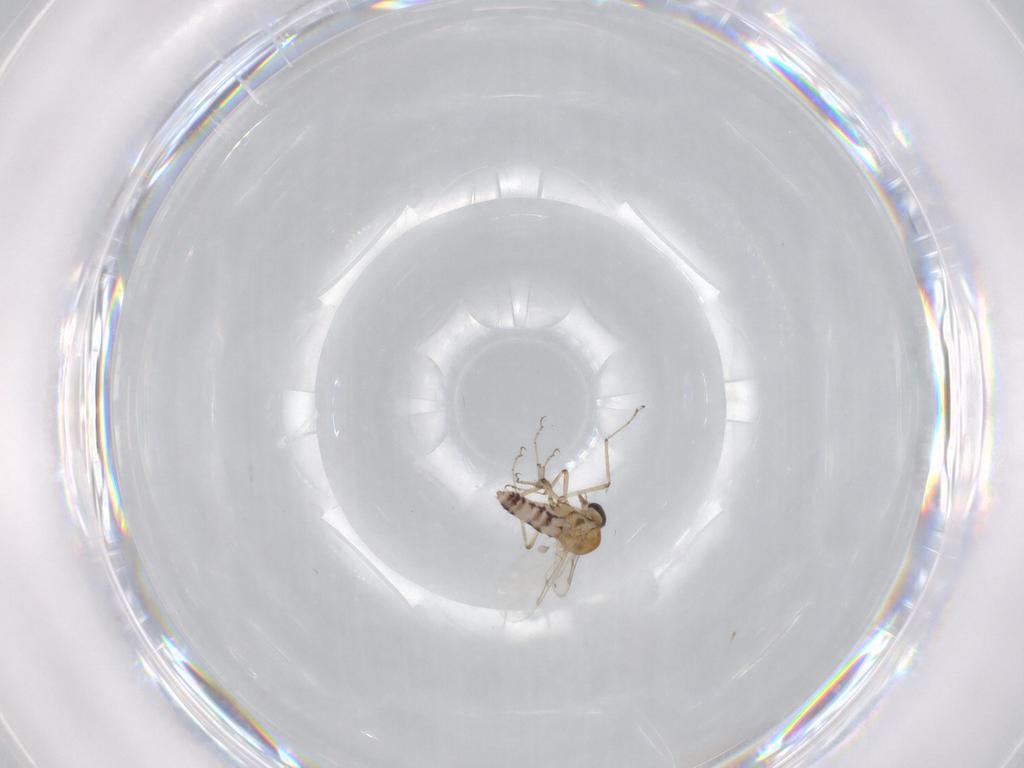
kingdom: Animalia
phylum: Arthropoda
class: Insecta
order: Diptera
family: Ceratopogonidae
